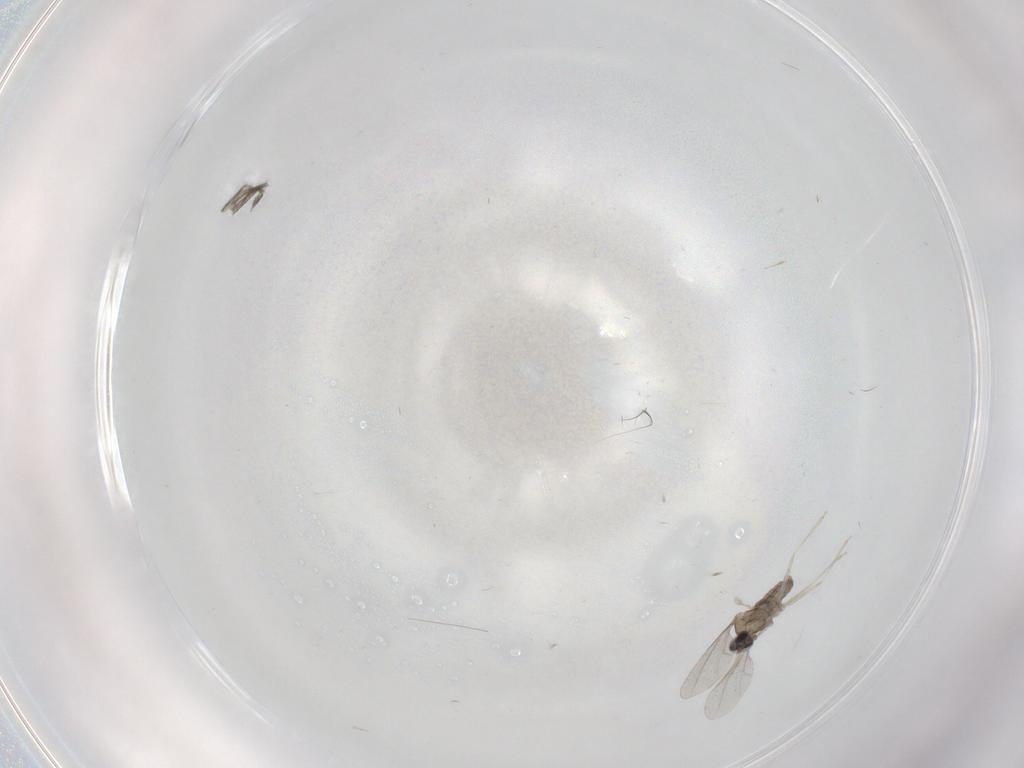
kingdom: Animalia
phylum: Arthropoda
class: Insecta
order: Diptera
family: Cecidomyiidae
